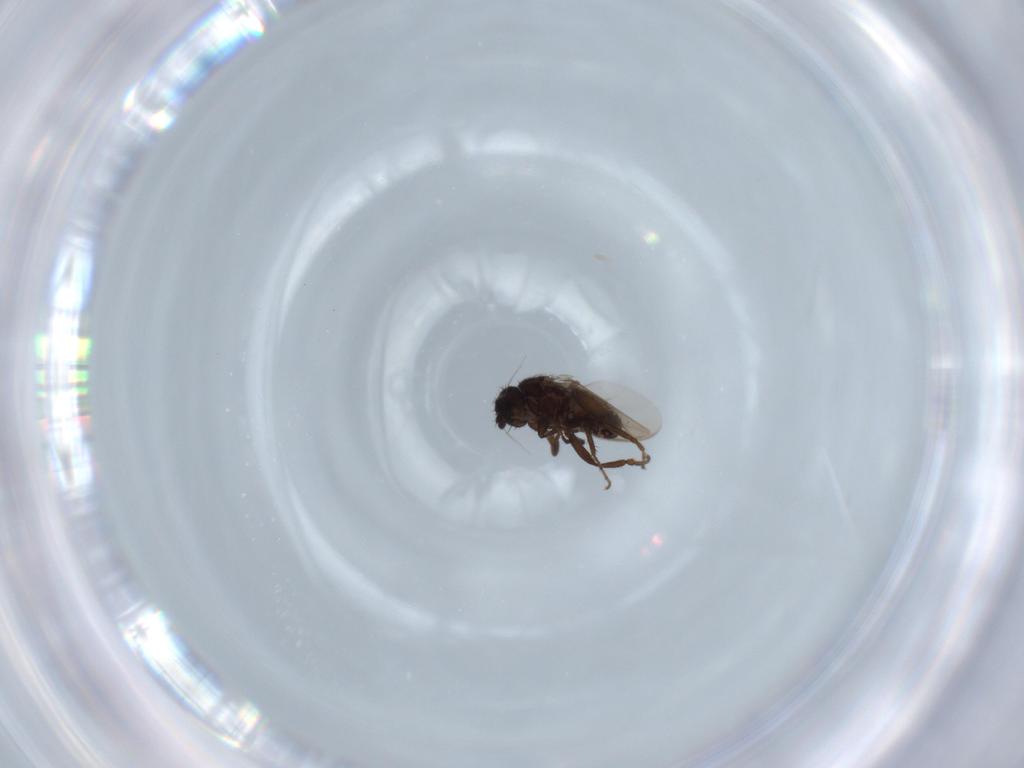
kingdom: Animalia
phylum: Arthropoda
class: Insecta
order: Diptera
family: Sphaeroceridae
